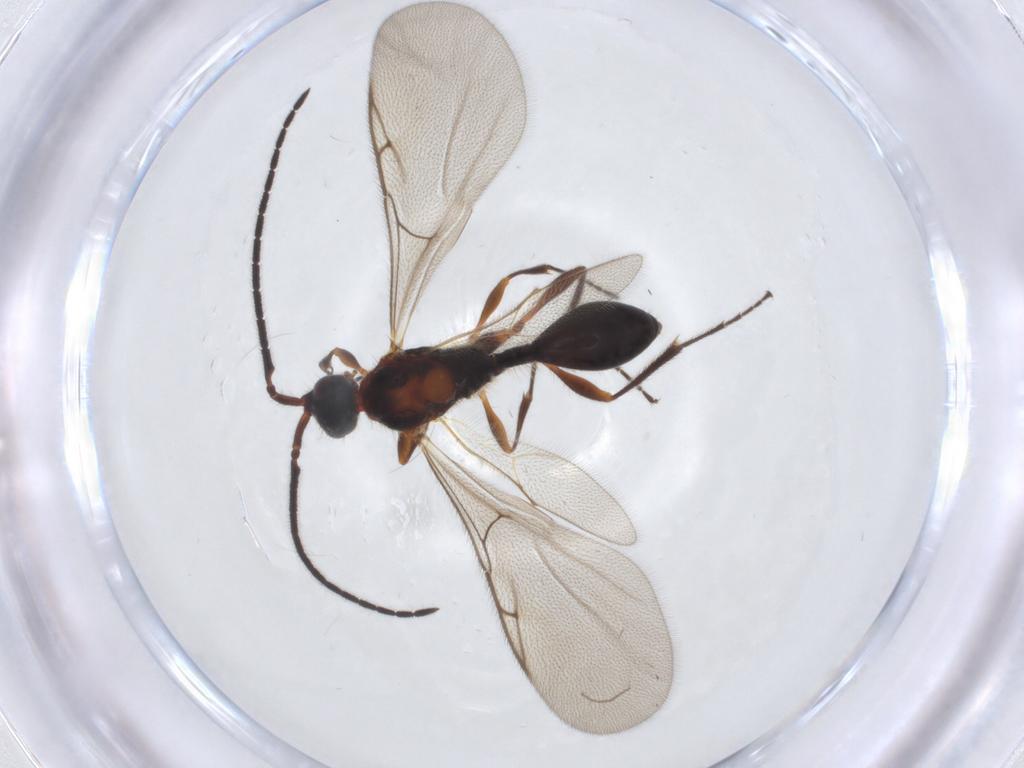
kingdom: Animalia
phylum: Arthropoda
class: Insecta
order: Hymenoptera
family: Diapriidae
